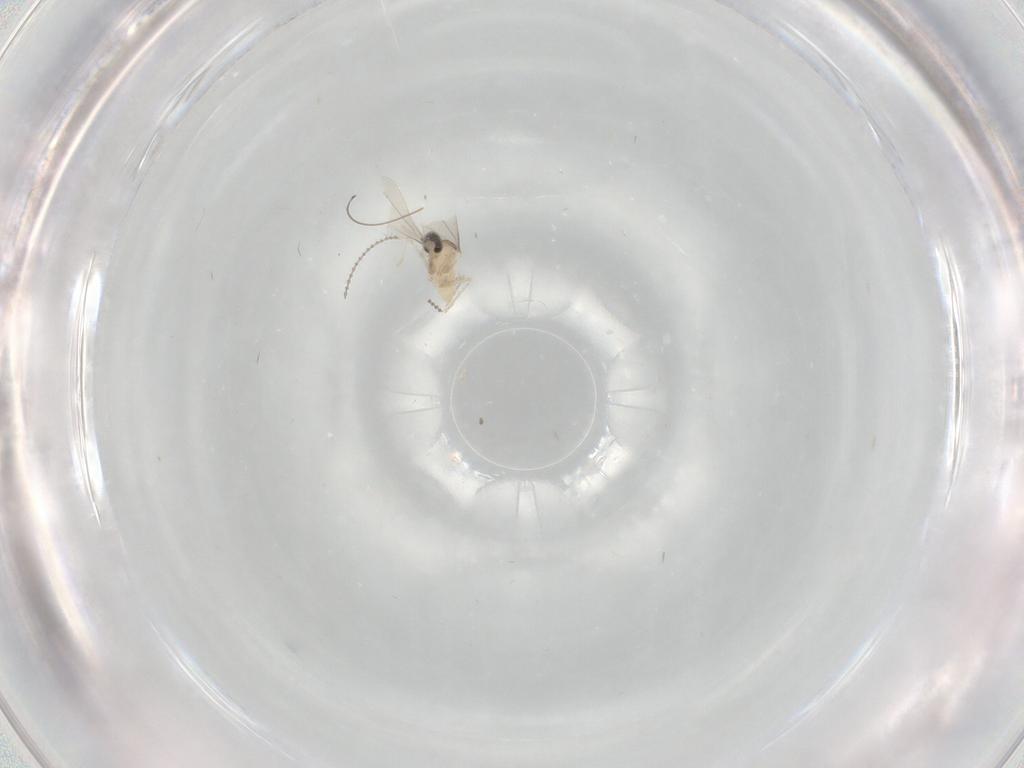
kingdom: Animalia
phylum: Arthropoda
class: Insecta
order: Diptera
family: Cecidomyiidae
